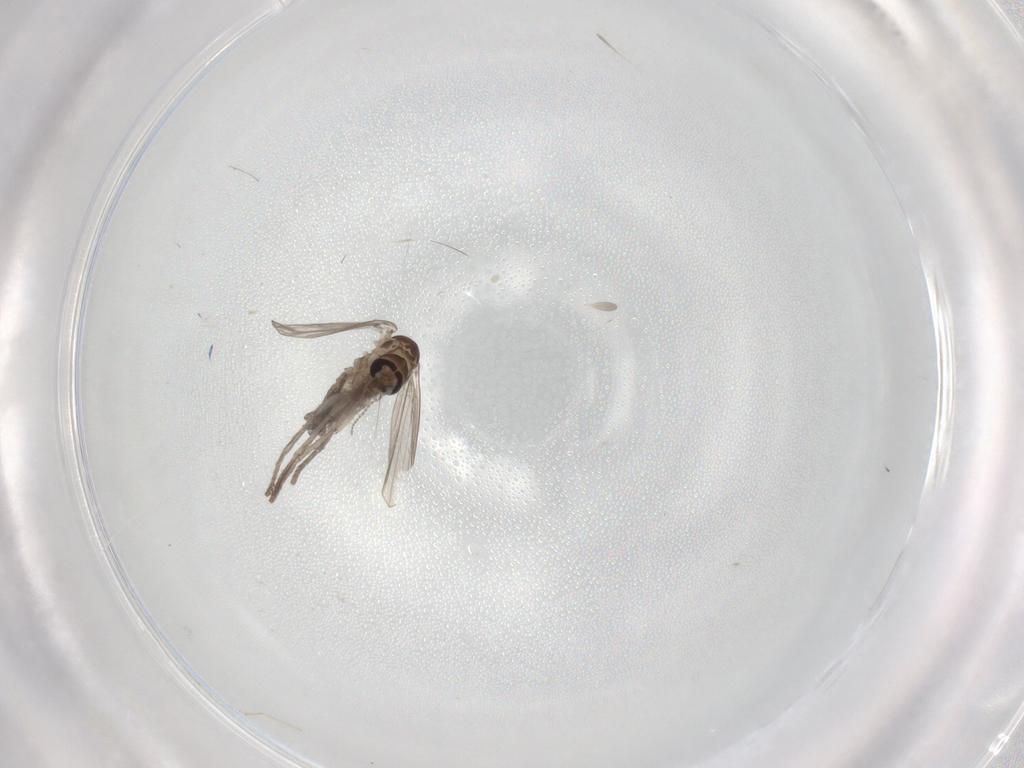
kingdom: Animalia
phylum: Arthropoda
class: Insecta
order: Diptera
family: Psychodidae
